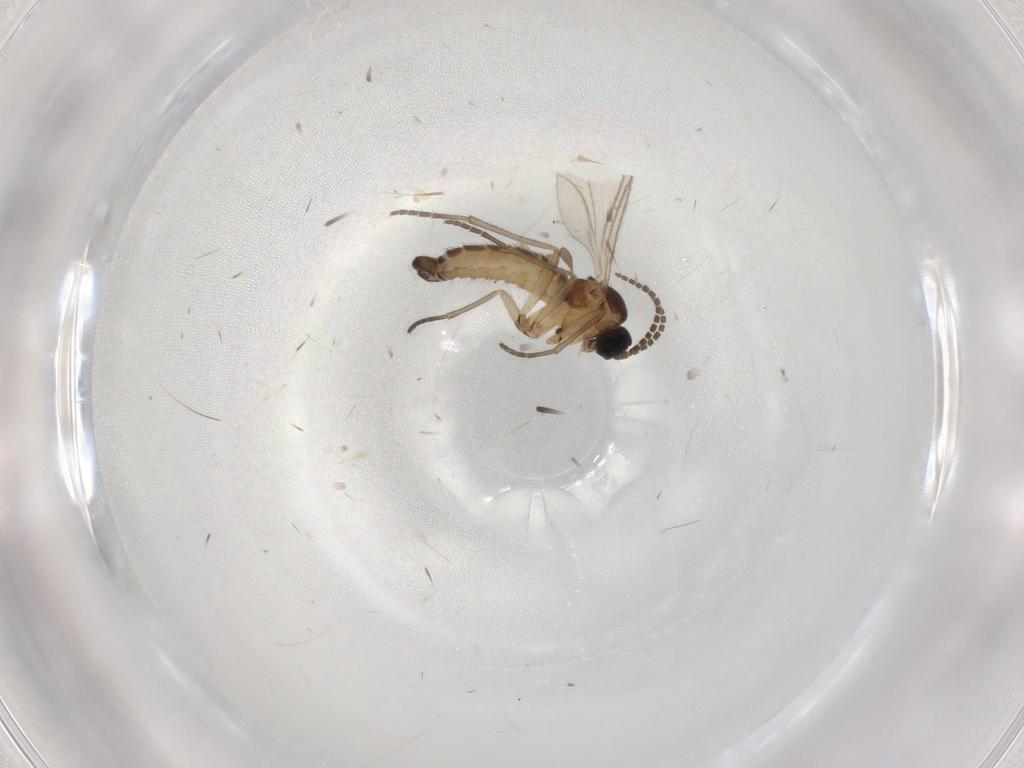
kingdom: Animalia
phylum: Arthropoda
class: Insecta
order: Diptera
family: Sciaridae
